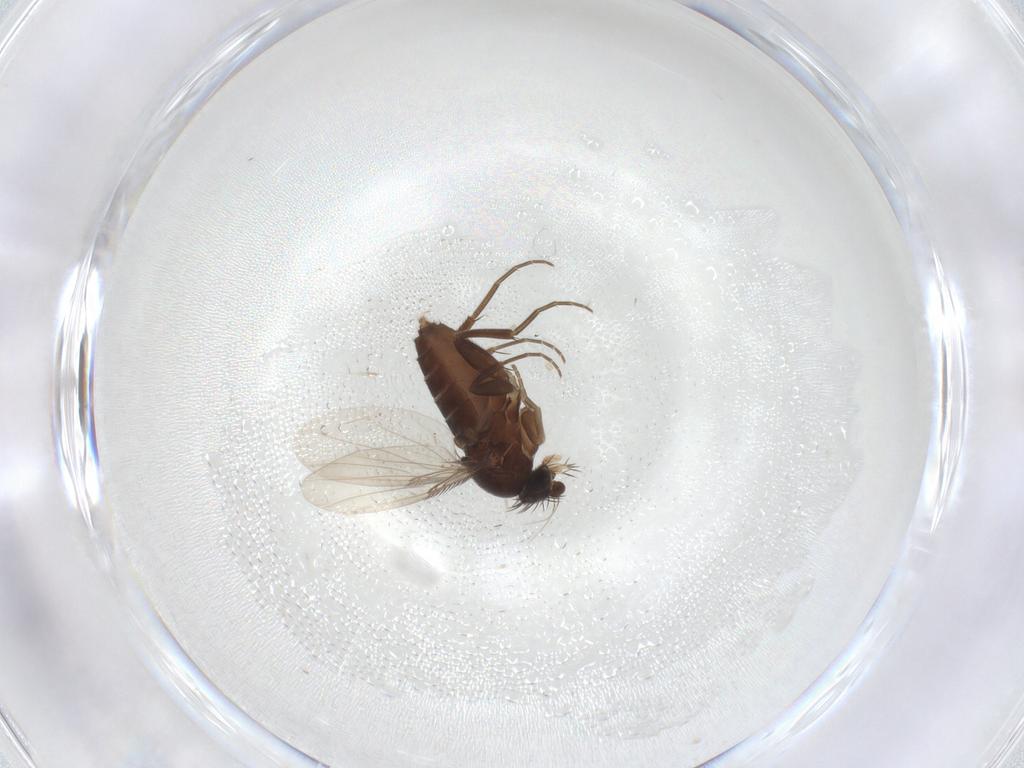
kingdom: Animalia
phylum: Arthropoda
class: Insecta
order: Diptera
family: Phoridae
